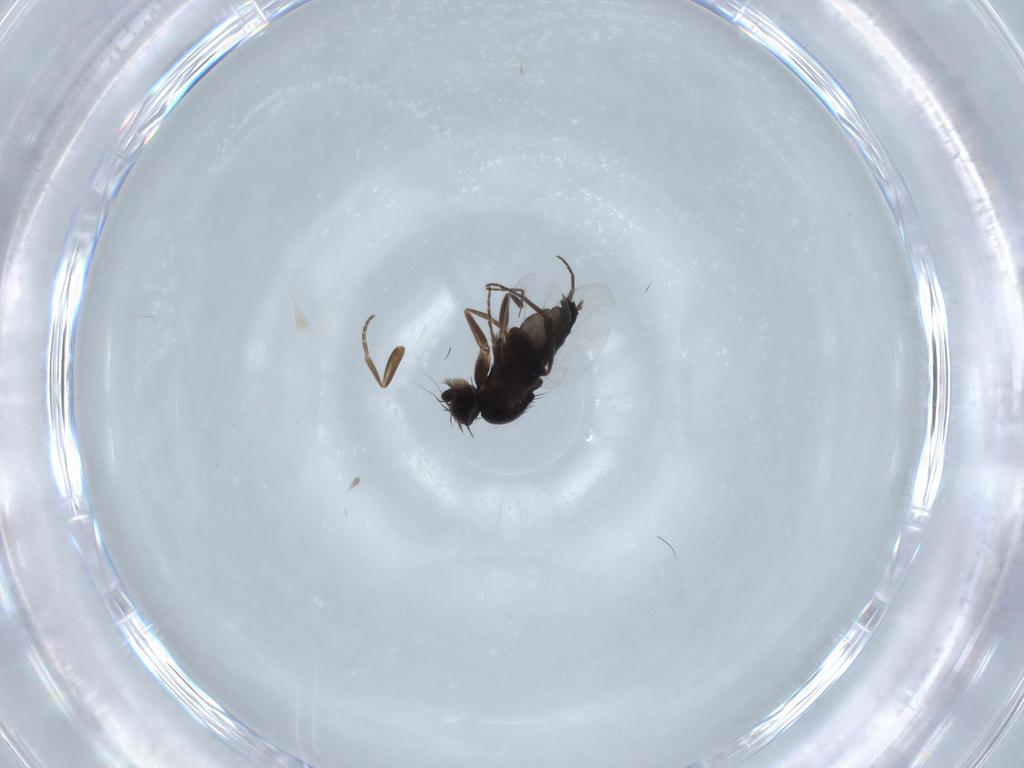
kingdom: Animalia
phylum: Arthropoda
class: Insecta
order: Diptera
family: Phoridae
